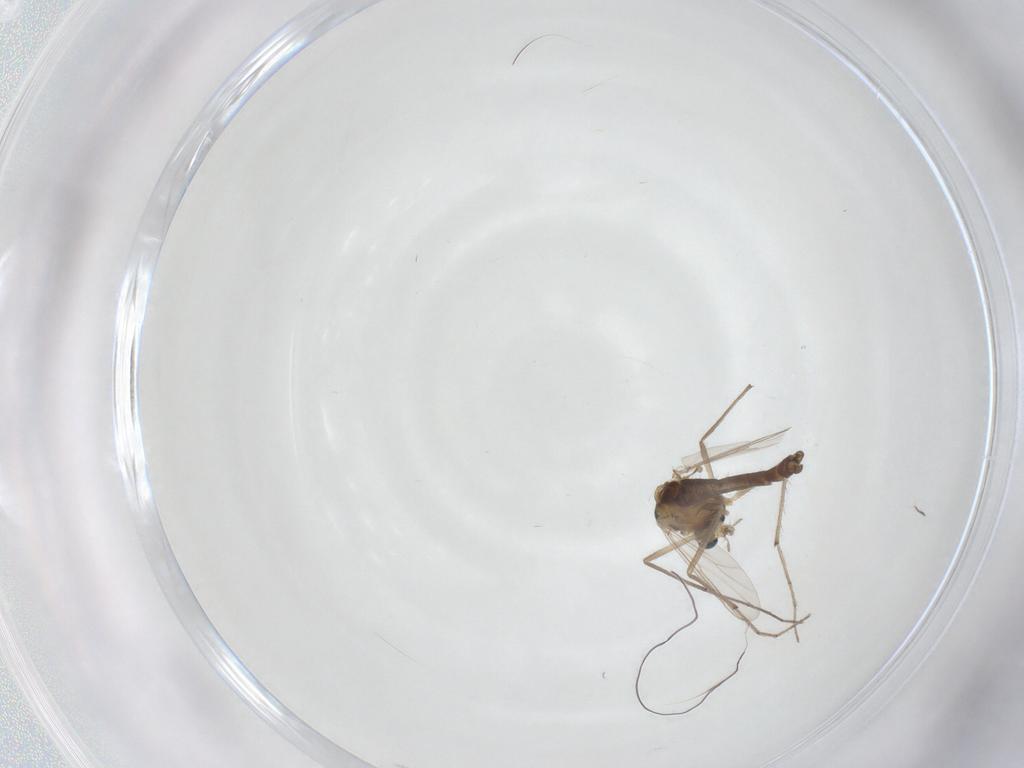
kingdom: Animalia
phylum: Arthropoda
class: Insecta
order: Diptera
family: Chironomidae
